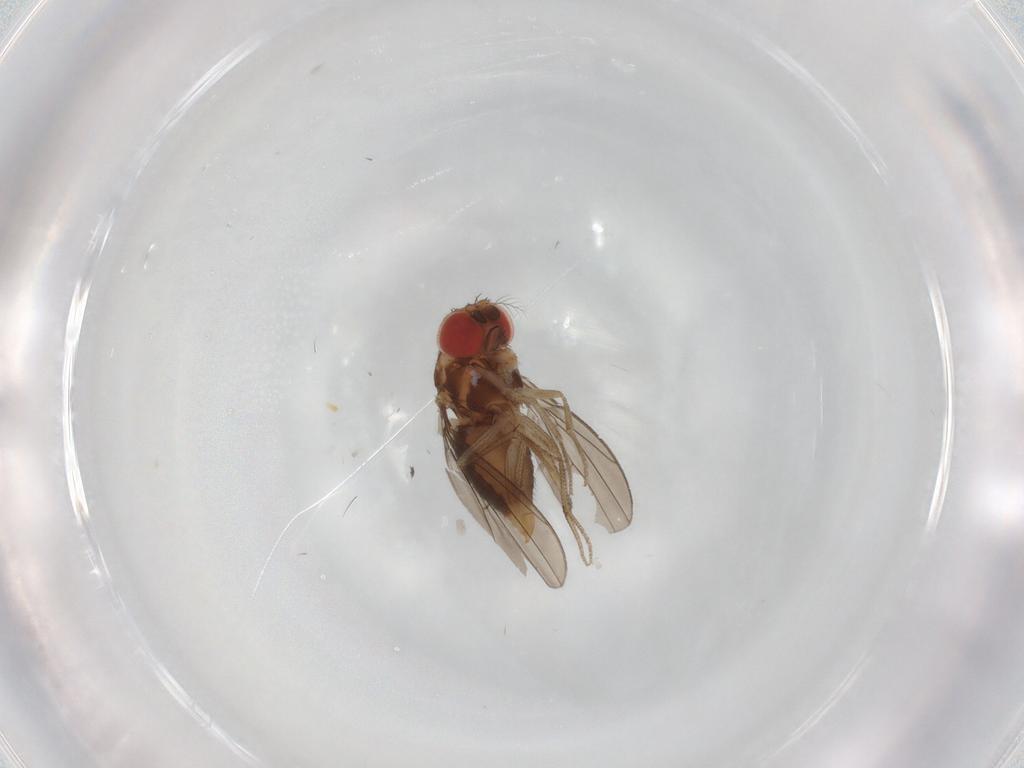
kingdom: Animalia
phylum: Arthropoda
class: Insecta
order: Diptera
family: Drosophilidae
